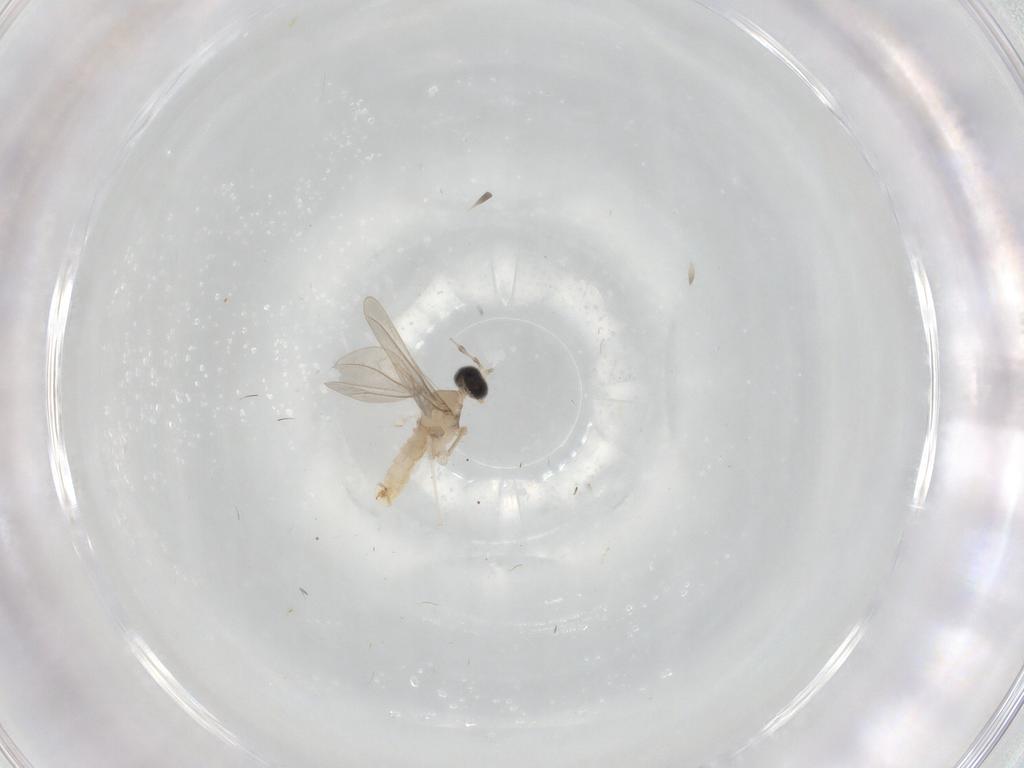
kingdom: Animalia
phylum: Arthropoda
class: Insecta
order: Diptera
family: Cecidomyiidae
